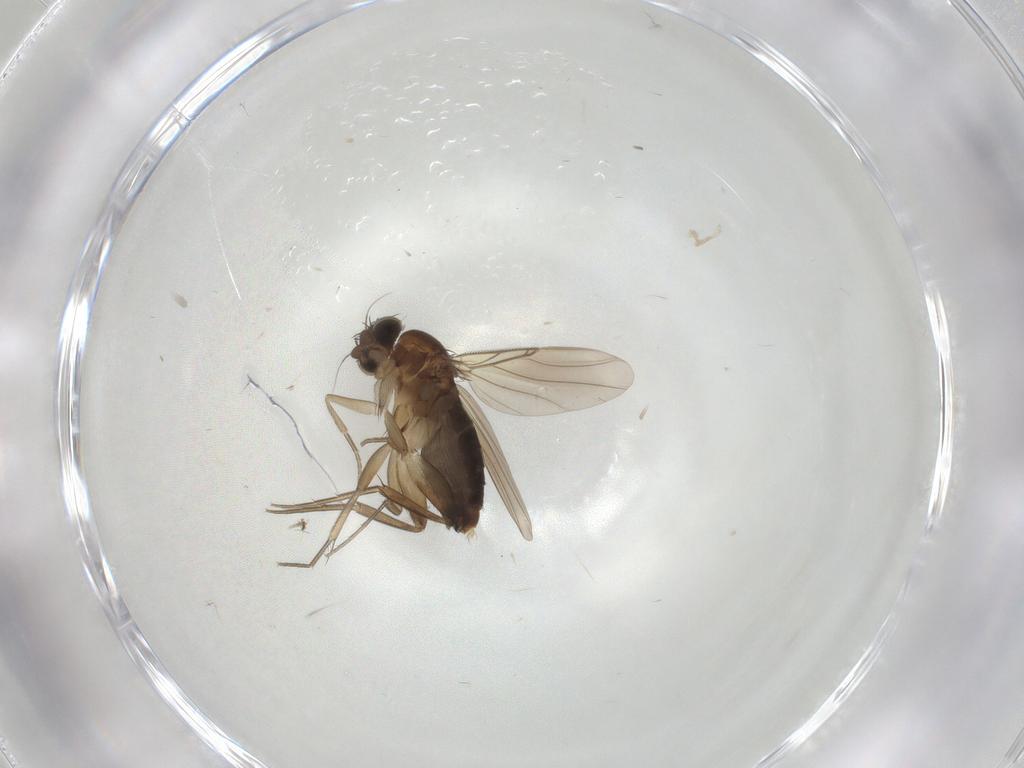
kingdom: Animalia
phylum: Arthropoda
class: Insecta
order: Diptera
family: Phoridae
